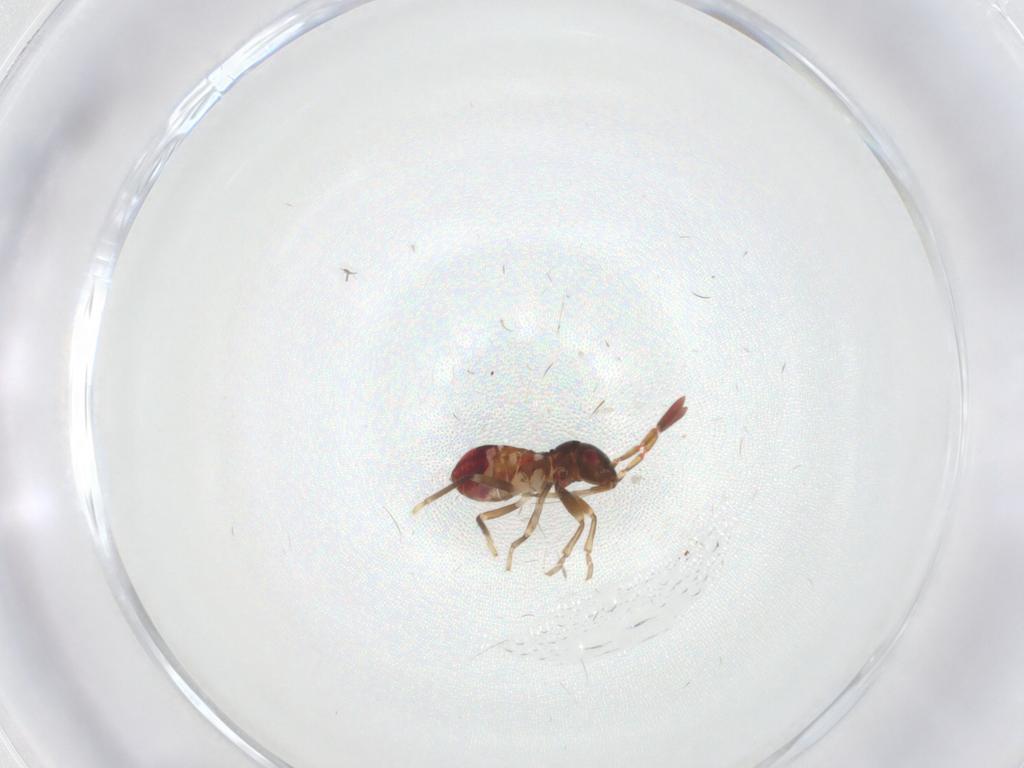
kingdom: Animalia
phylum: Arthropoda
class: Insecta
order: Hemiptera
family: Rhyparochromidae
